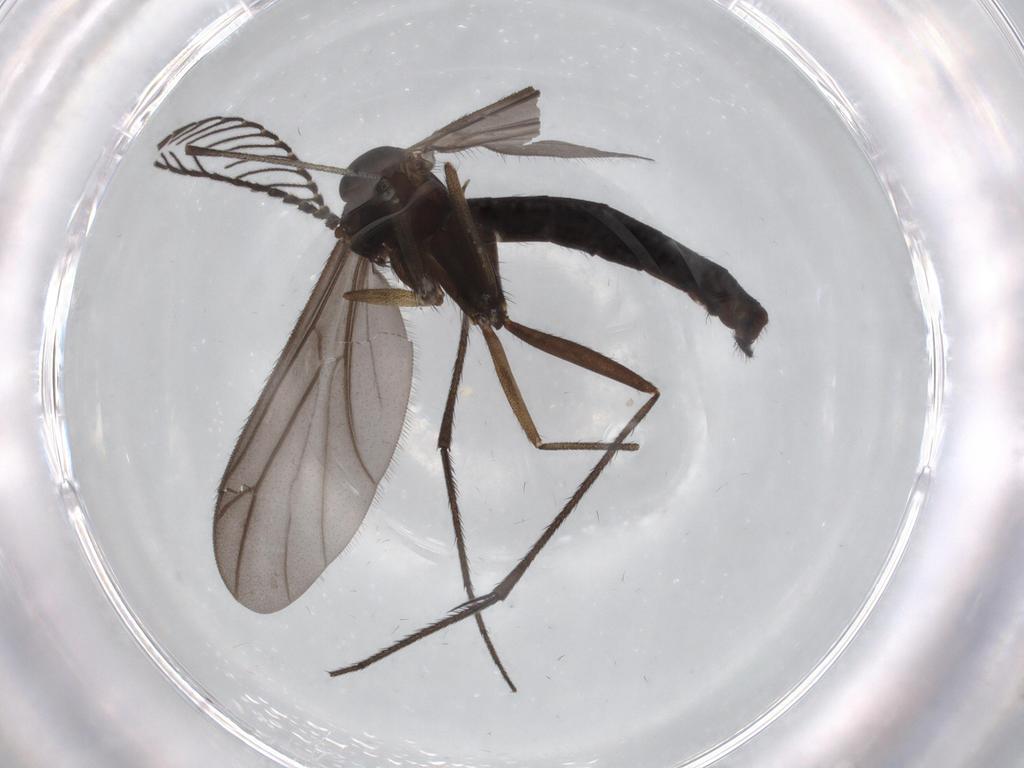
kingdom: Animalia
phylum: Arthropoda
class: Insecta
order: Diptera
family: Ditomyiidae
